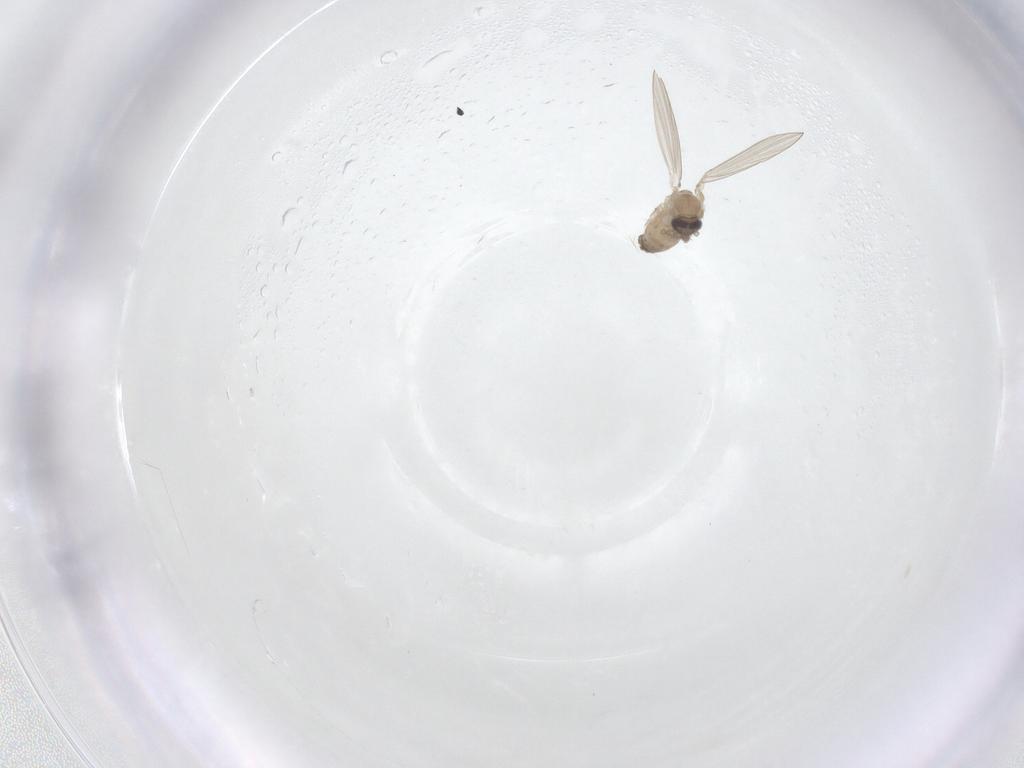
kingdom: Animalia
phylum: Arthropoda
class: Insecta
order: Diptera
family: Psychodidae
